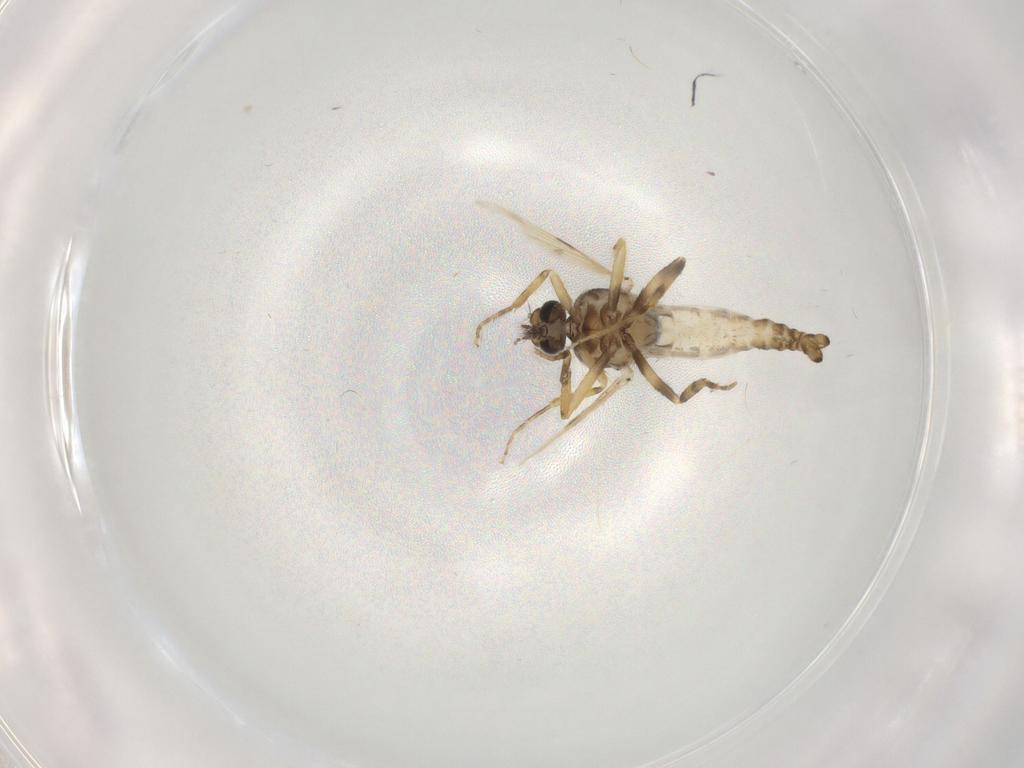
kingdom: Animalia
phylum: Arthropoda
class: Insecta
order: Diptera
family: Ceratopogonidae
